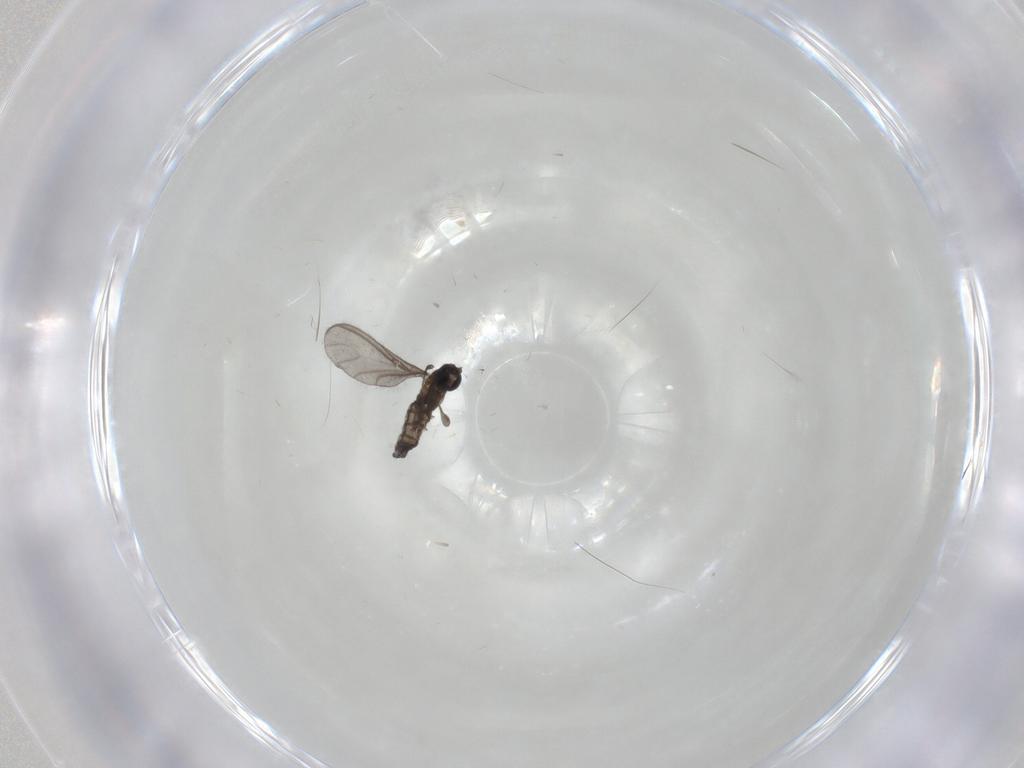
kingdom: Animalia
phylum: Arthropoda
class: Insecta
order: Diptera
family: Sciaridae
